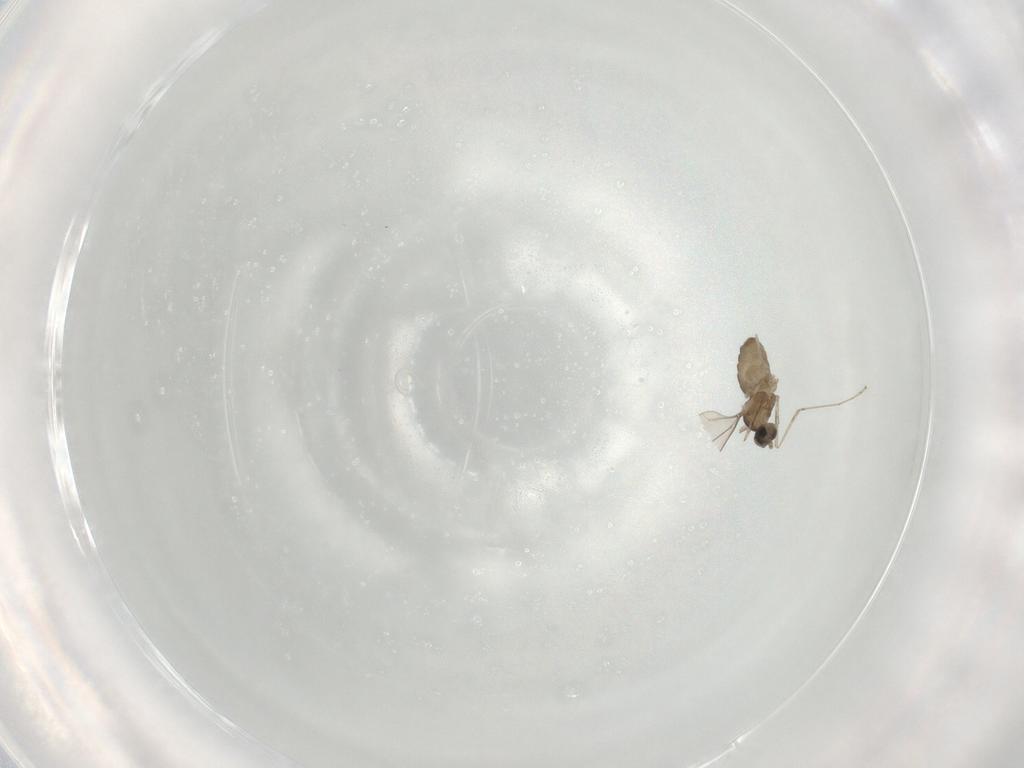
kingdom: Animalia
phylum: Arthropoda
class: Insecta
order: Diptera
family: Cecidomyiidae
